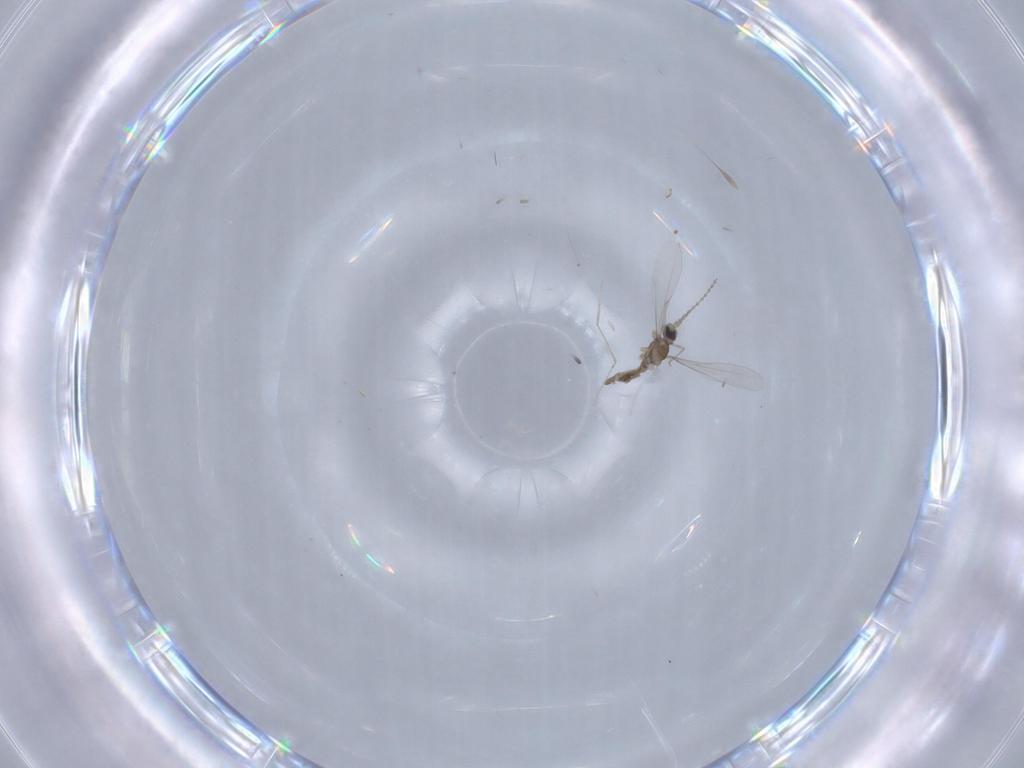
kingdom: Animalia
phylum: Arthropoda
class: Insecta
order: Diptera
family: Cecidomyiidae
